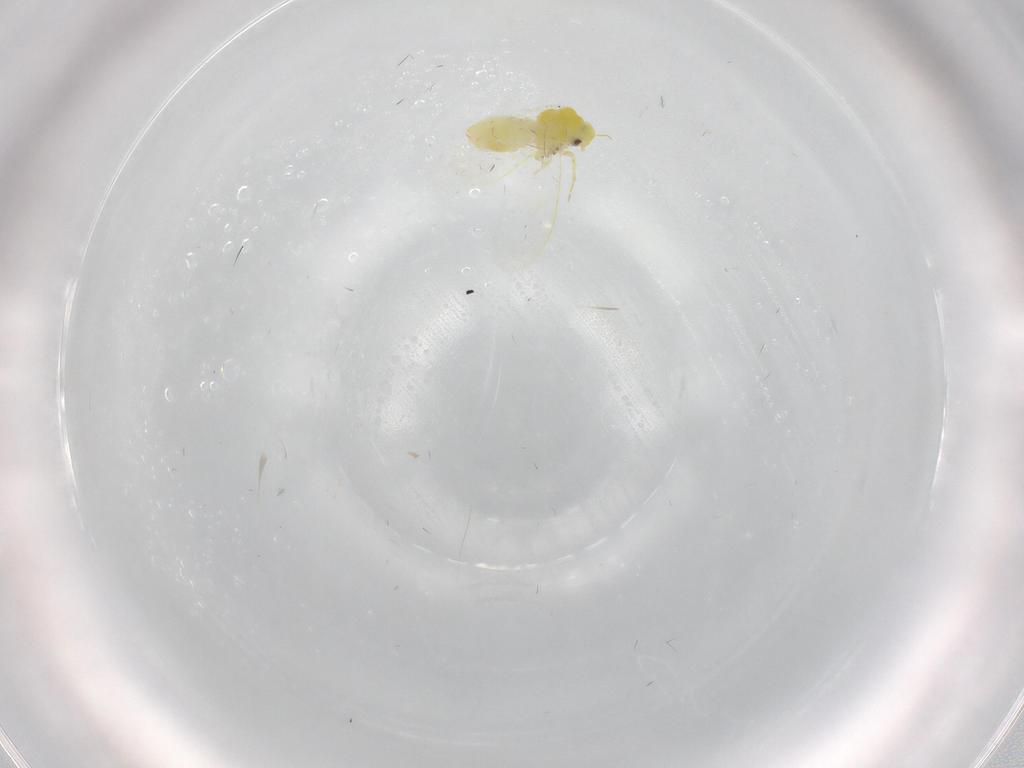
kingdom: Animalia
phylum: Arthropoda
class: Insecta
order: Hemiptera
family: Aleyrodidae
